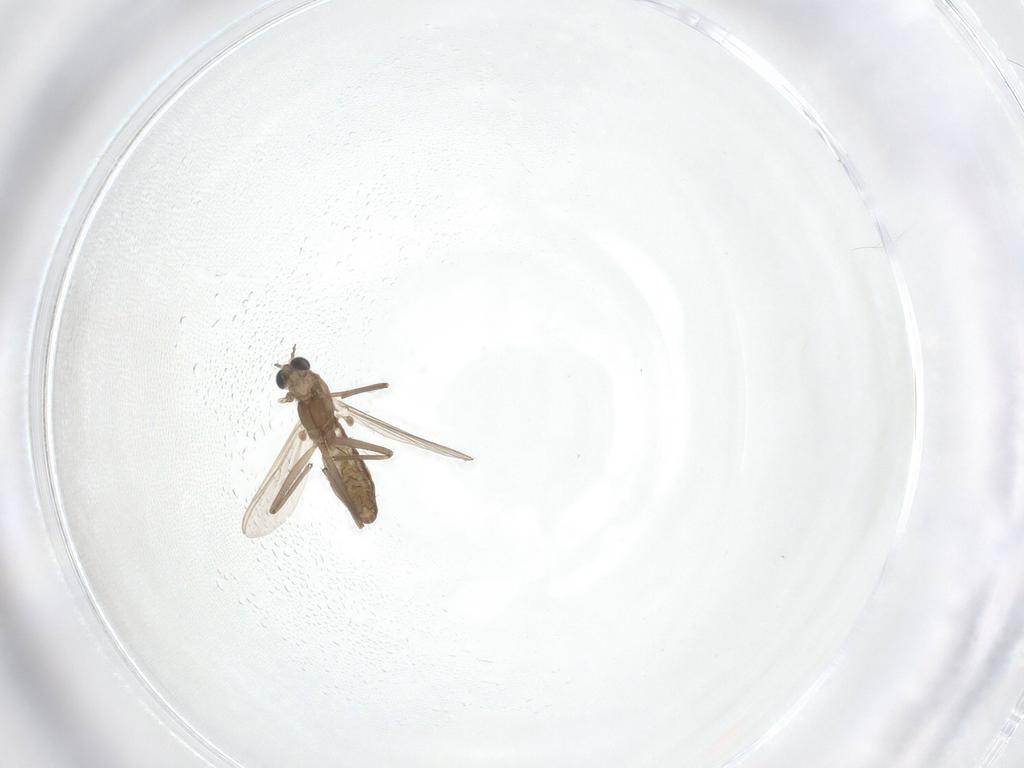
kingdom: Animalia
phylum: Arthropoda
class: Insecta
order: Diptera
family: Chironomidae
